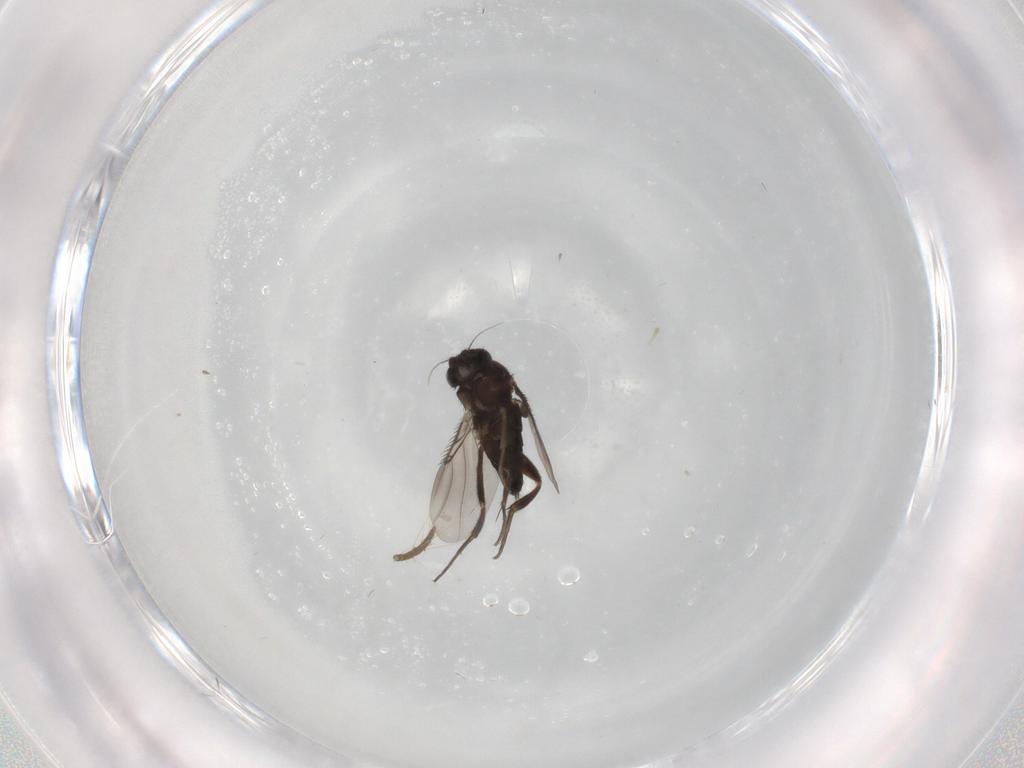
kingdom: Animalia
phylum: Arthropoda
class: Insecta
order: Diptera
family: Phoridae
